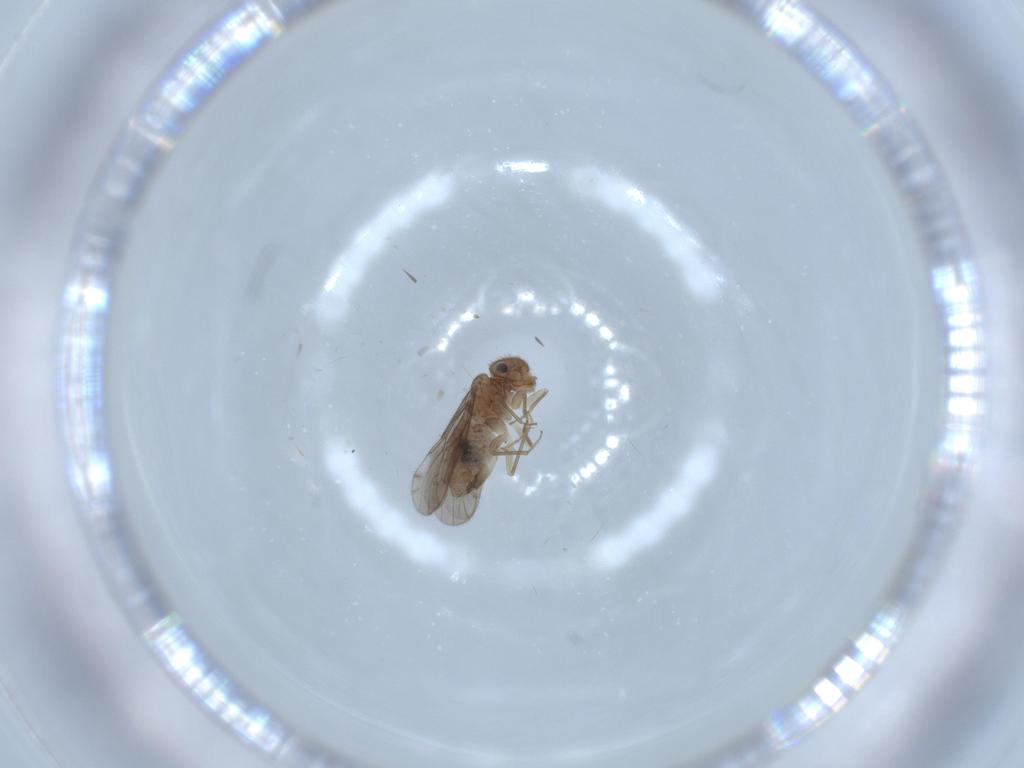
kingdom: Animalia
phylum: Arthropoda
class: Insecta
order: Psocodea
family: Ectopsocidae
